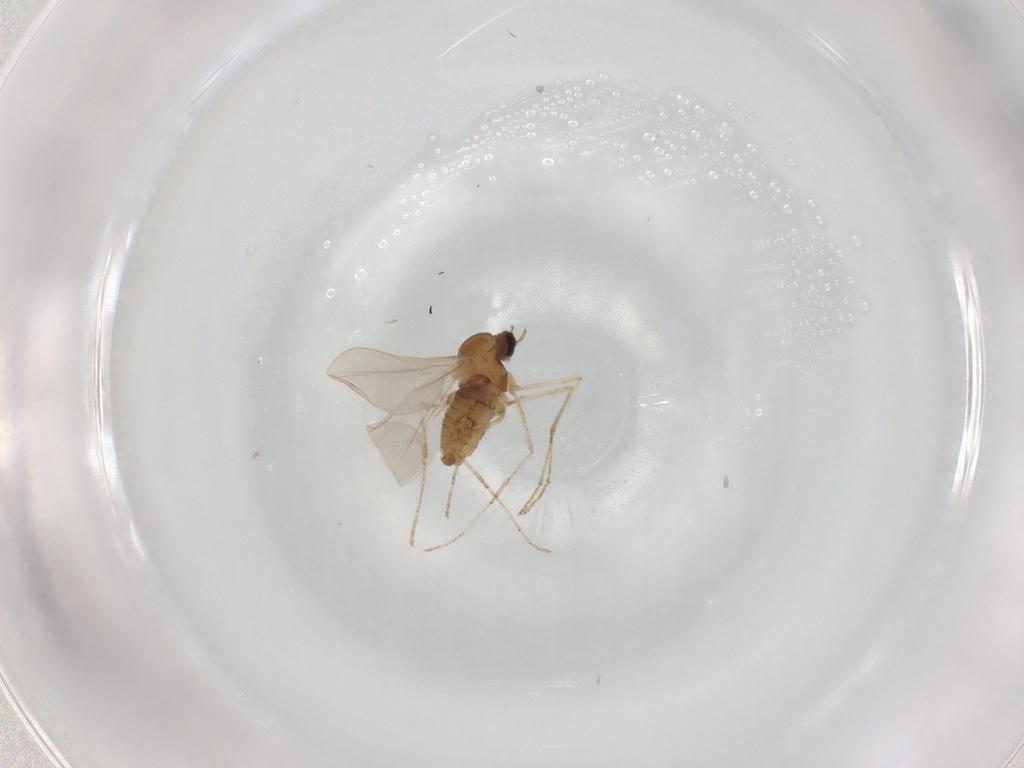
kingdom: Animalia
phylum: Arthropoda
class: Insecta
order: Diptera
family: Cecidomyiidae
